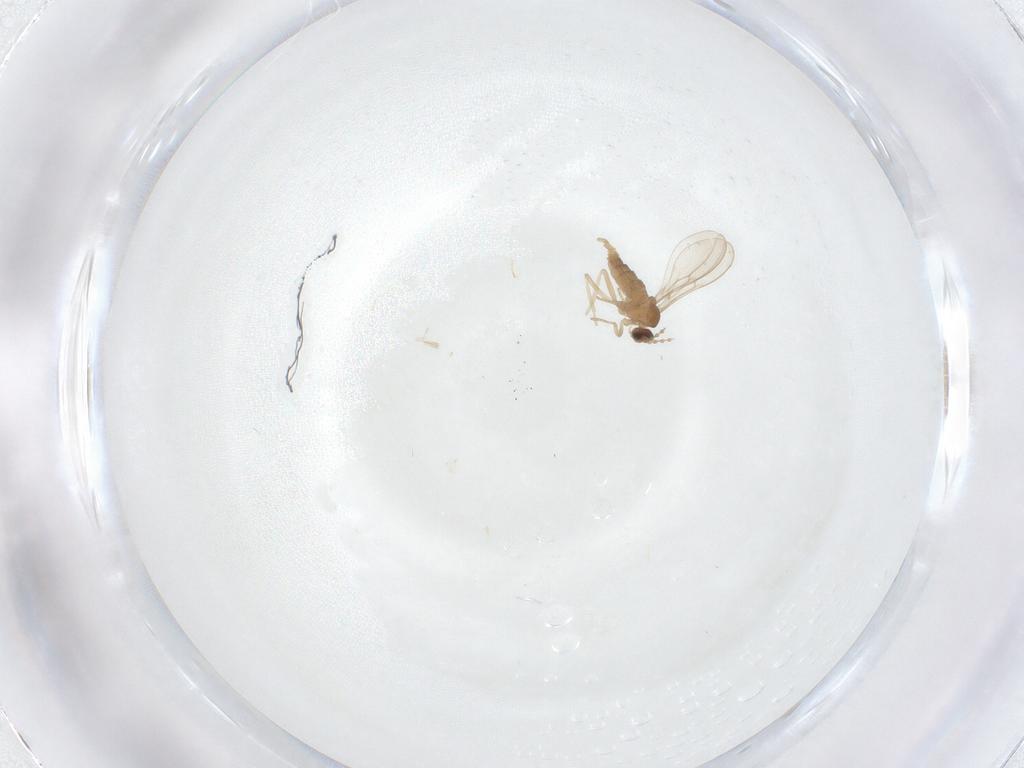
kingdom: Animalia
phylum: Arthropoda
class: Insecta
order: Diptera
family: Cecidomyiidae
